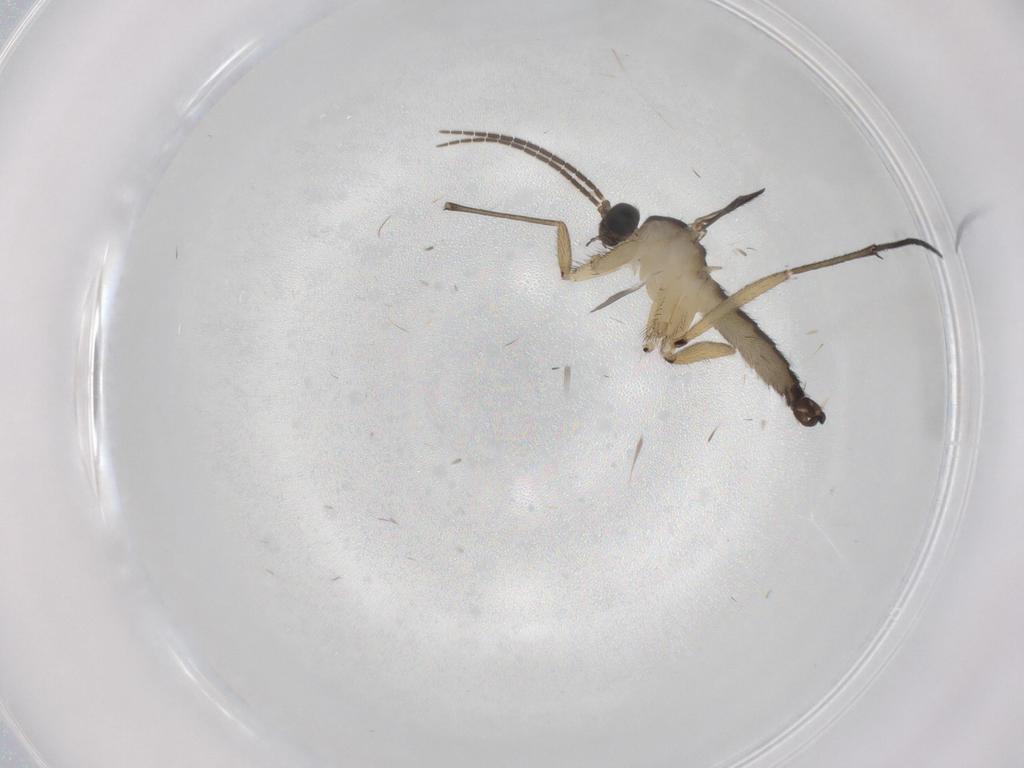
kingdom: Animalia
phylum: Arthropoda
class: Insecta
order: Diptera
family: Sciaridae
